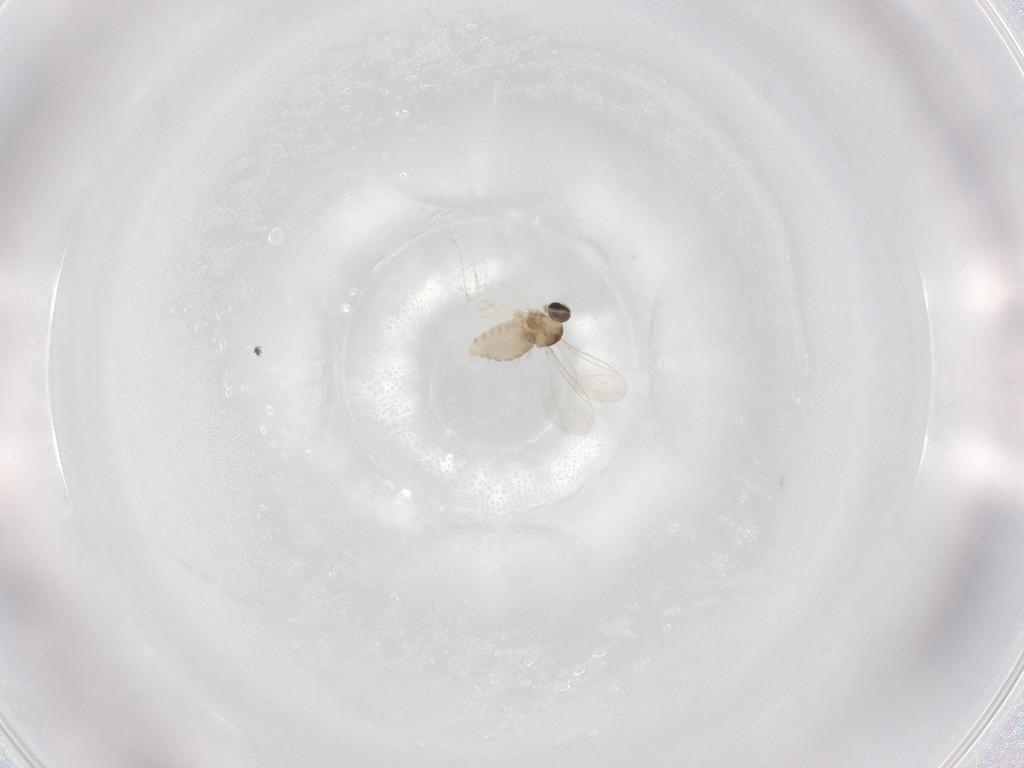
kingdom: Animalia
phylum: Arthropoda
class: Insecta
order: Diptera
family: Cecidomyiidae
